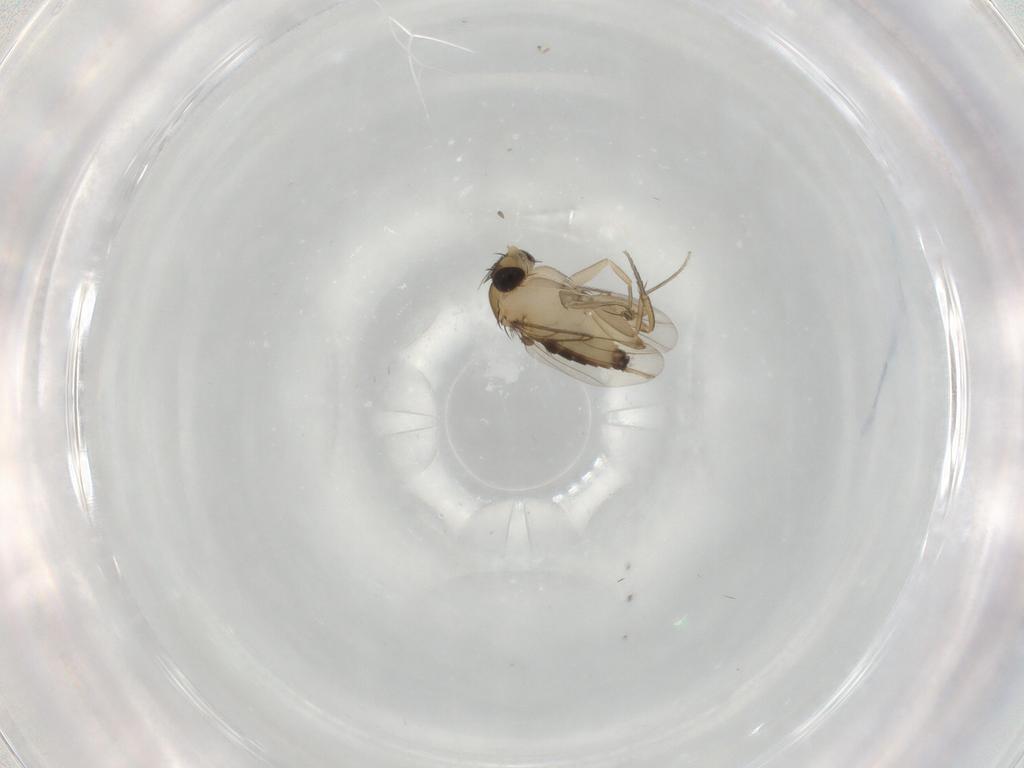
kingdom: Animalia
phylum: Arthropoda
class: Insecta
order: Diptera
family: Phoridae
